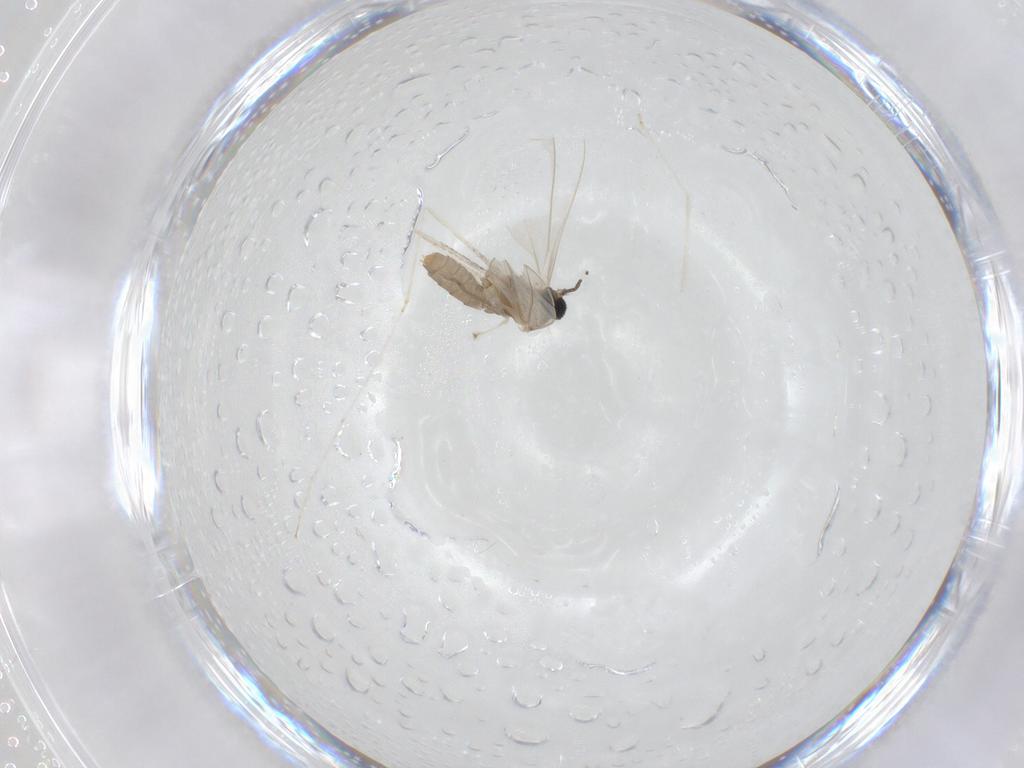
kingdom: Animalia
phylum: Arthropoda
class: Insecta
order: Diptera
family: Cecidomyiidae
